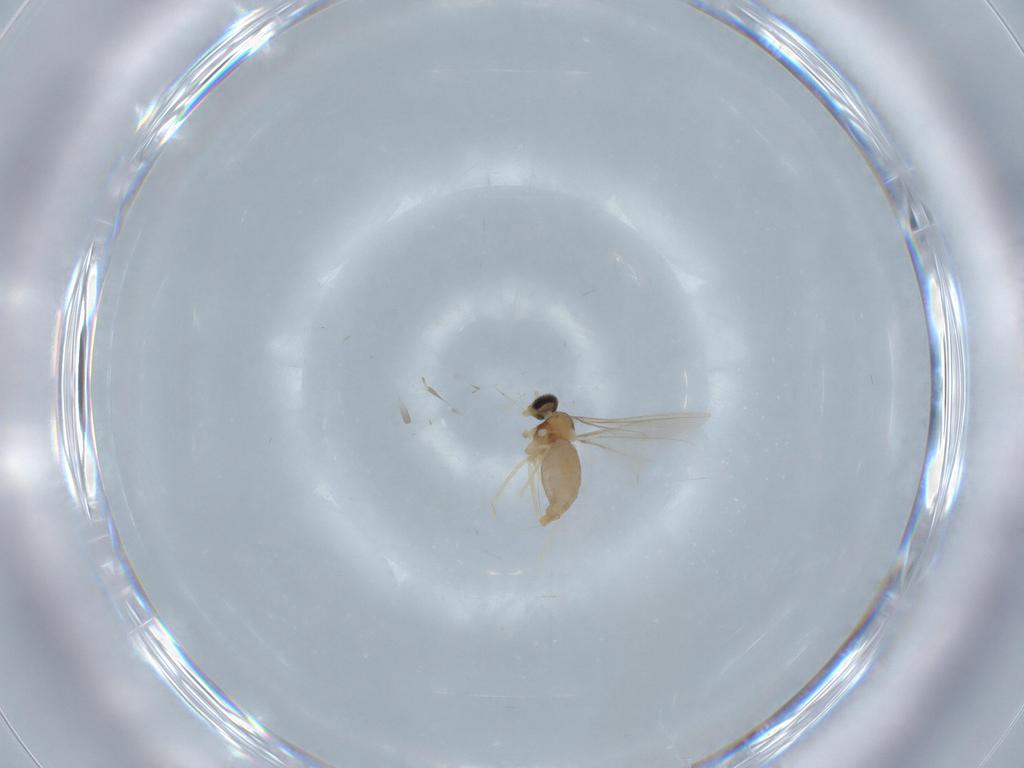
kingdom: Animalia
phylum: Arthropoda
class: Insecta
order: Diptera
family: Cecidomyiidae
